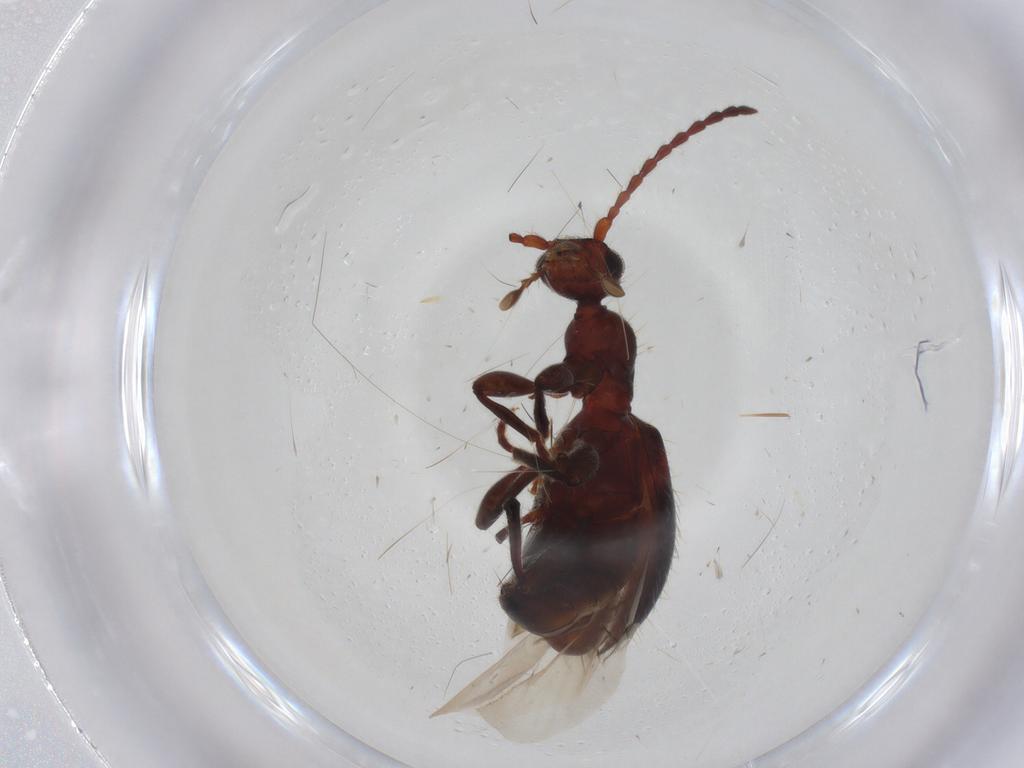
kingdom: Animalia
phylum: Arthropoda
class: Insecta
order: Coleoptera
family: Anthicidae
